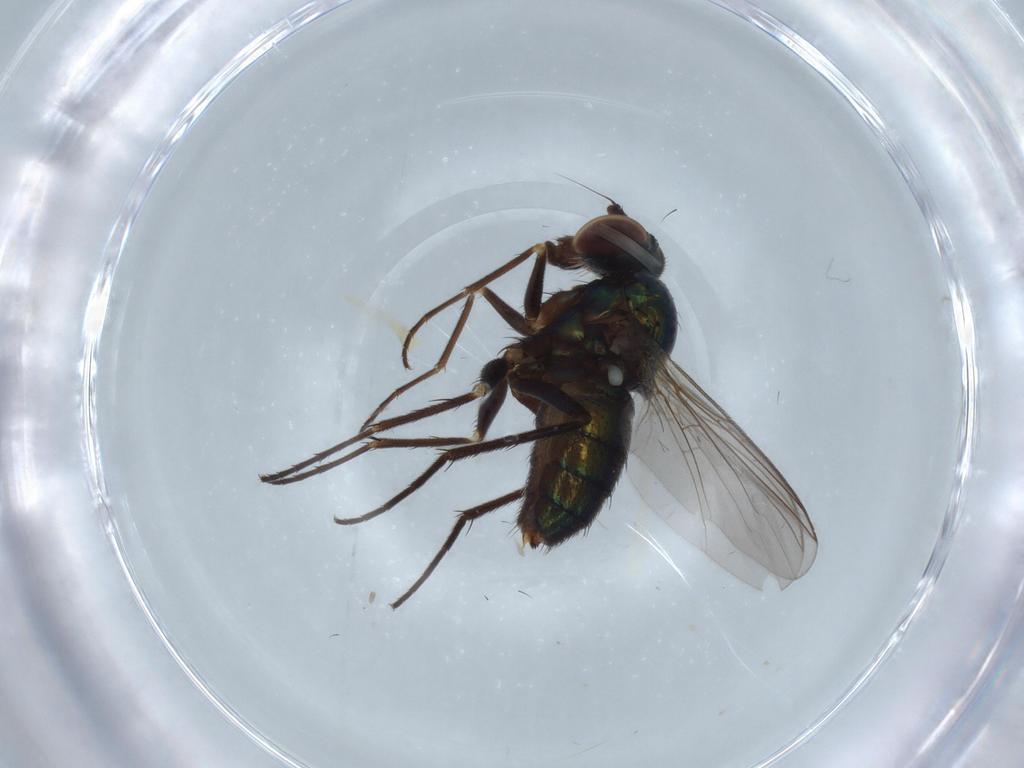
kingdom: Animalia
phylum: Arthropoda
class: Insecta
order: Diptera
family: Dolichopodidae
